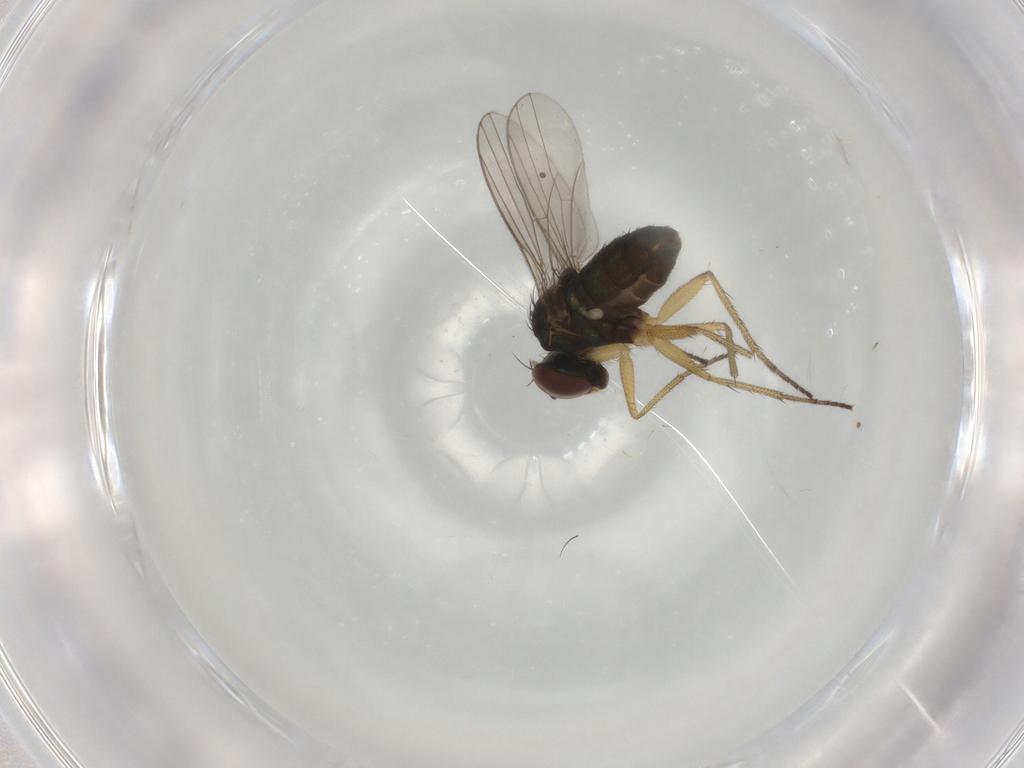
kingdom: Animalia
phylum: Arthropoda
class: Insecta
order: Diptera
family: Dolichopodidae
